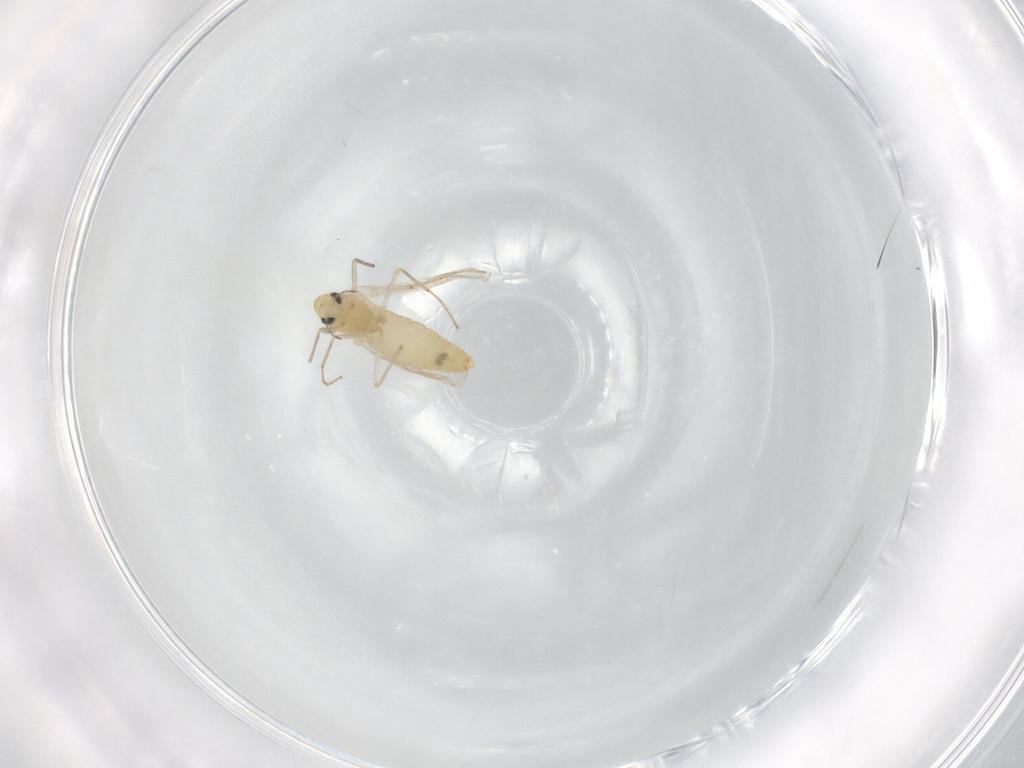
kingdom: Animalia
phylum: Arthropoda
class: Insecta
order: Diptera
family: Chironomidae
